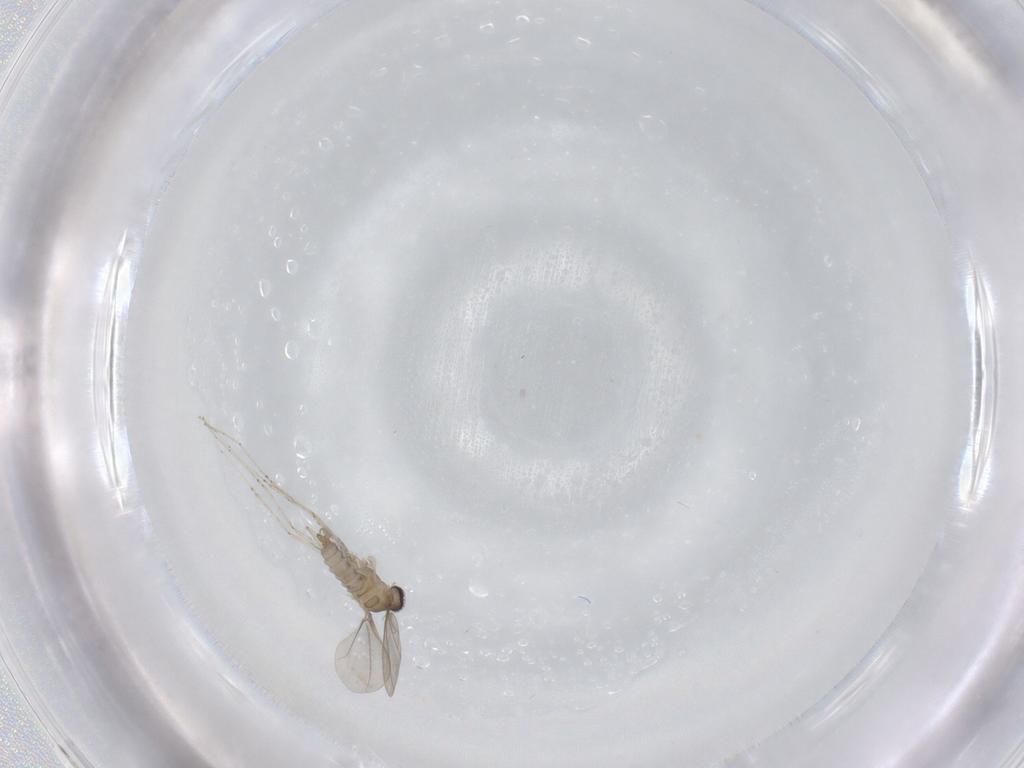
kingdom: Animalia
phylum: Arthropoda
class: Insecta
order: Diptera
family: Cecidomyiidae
